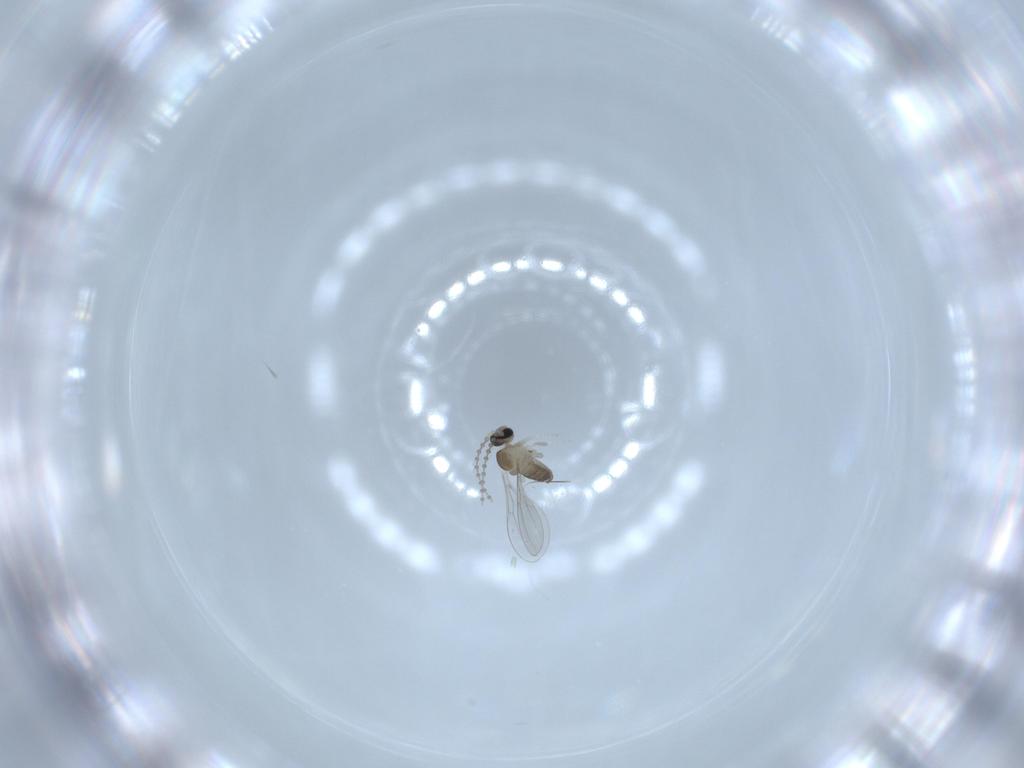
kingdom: Animalia
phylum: Arthropoda
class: Insecta
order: Diptera
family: Cecidomyiidae
